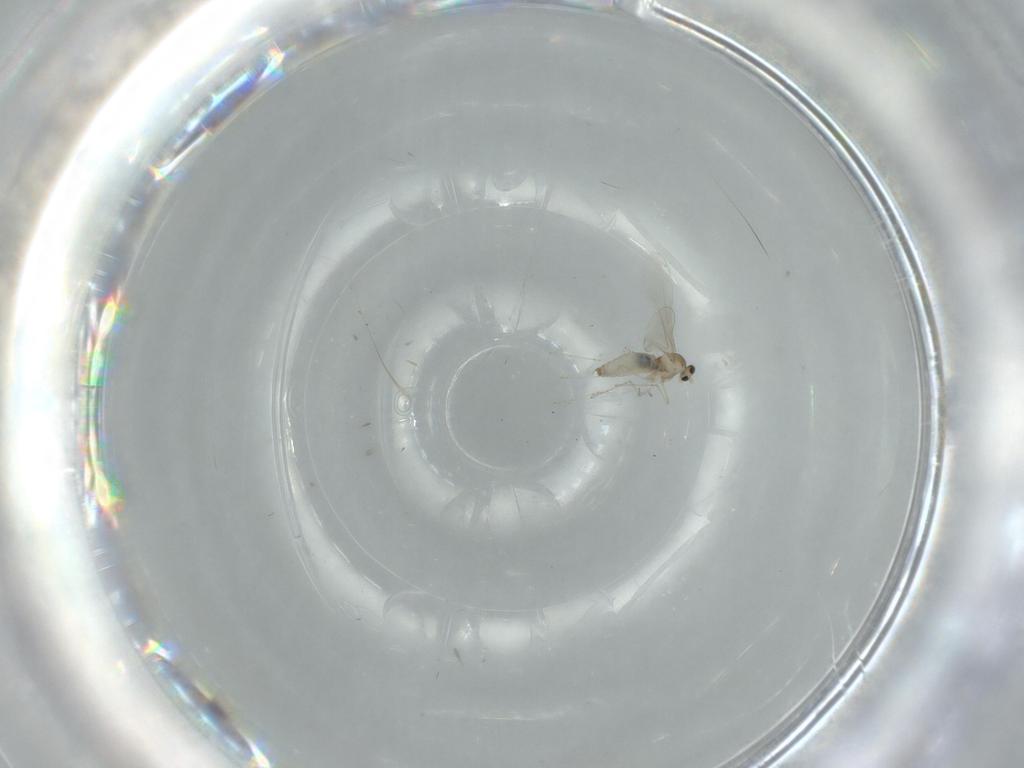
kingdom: Animalia
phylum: Arthropoda
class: Insecta
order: Diptera
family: Cecidomyiidae
